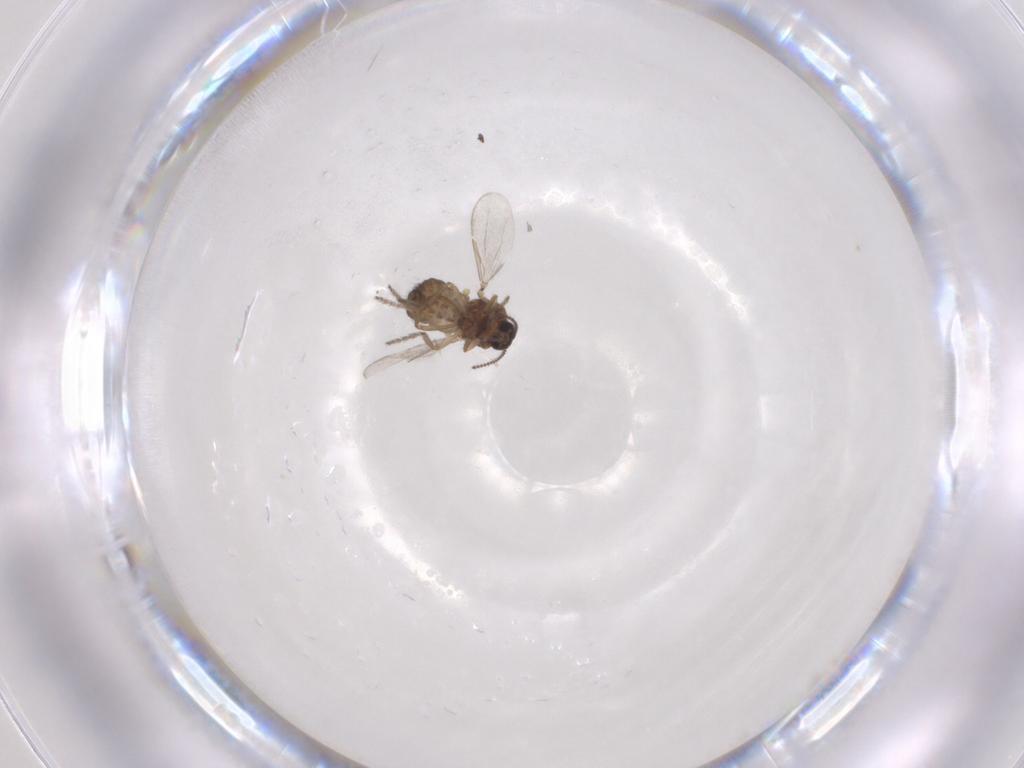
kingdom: Animalia
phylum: Arthropoda
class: Insecta
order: Diptera
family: Ceratopogonidae
